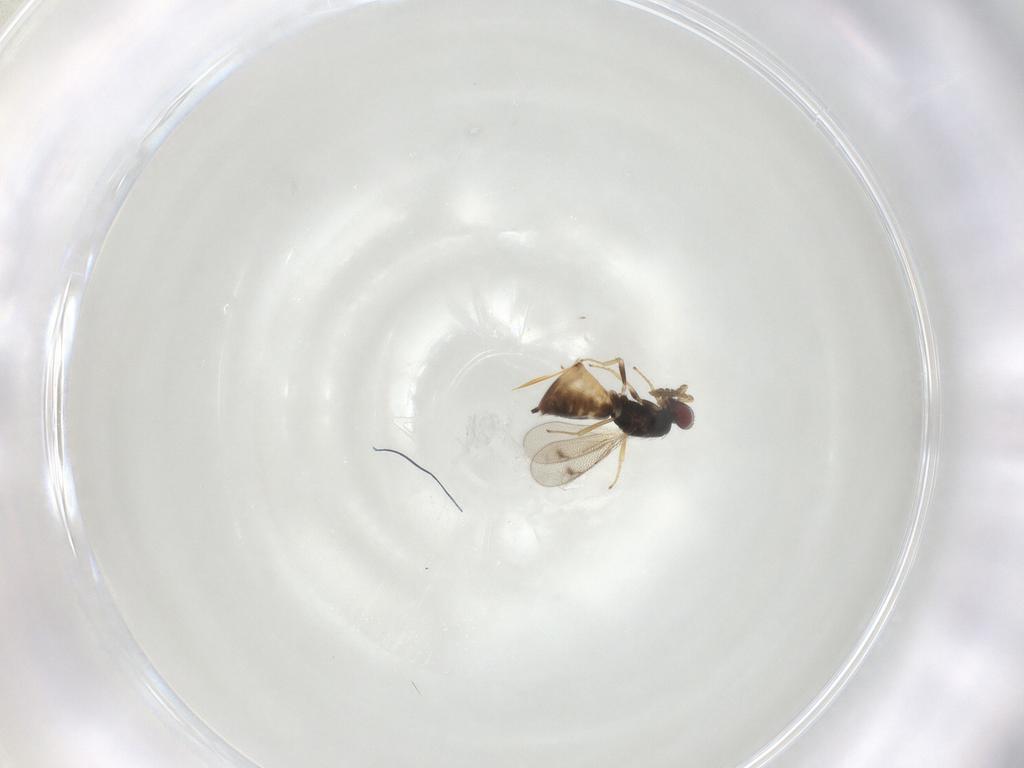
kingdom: Animalia
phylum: Arthropoda
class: Insecta
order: Hymenoptera
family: Eulophidae
